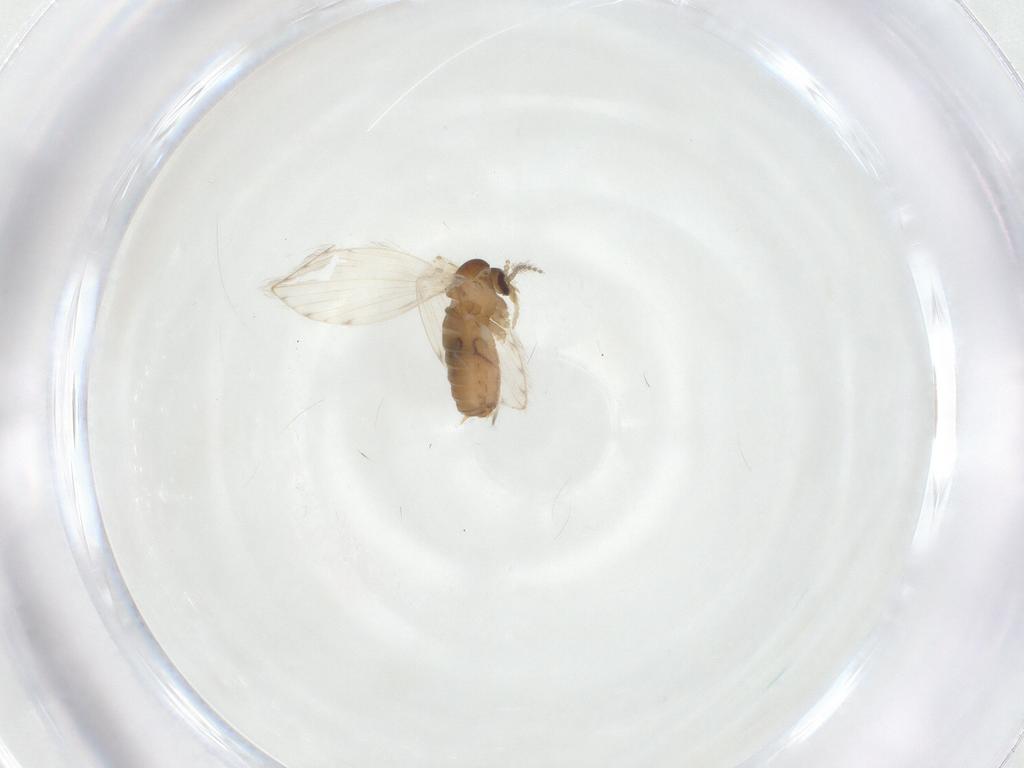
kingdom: Animalia
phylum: Arthropoda
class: Insecta
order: Diptera
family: Psychodidae
